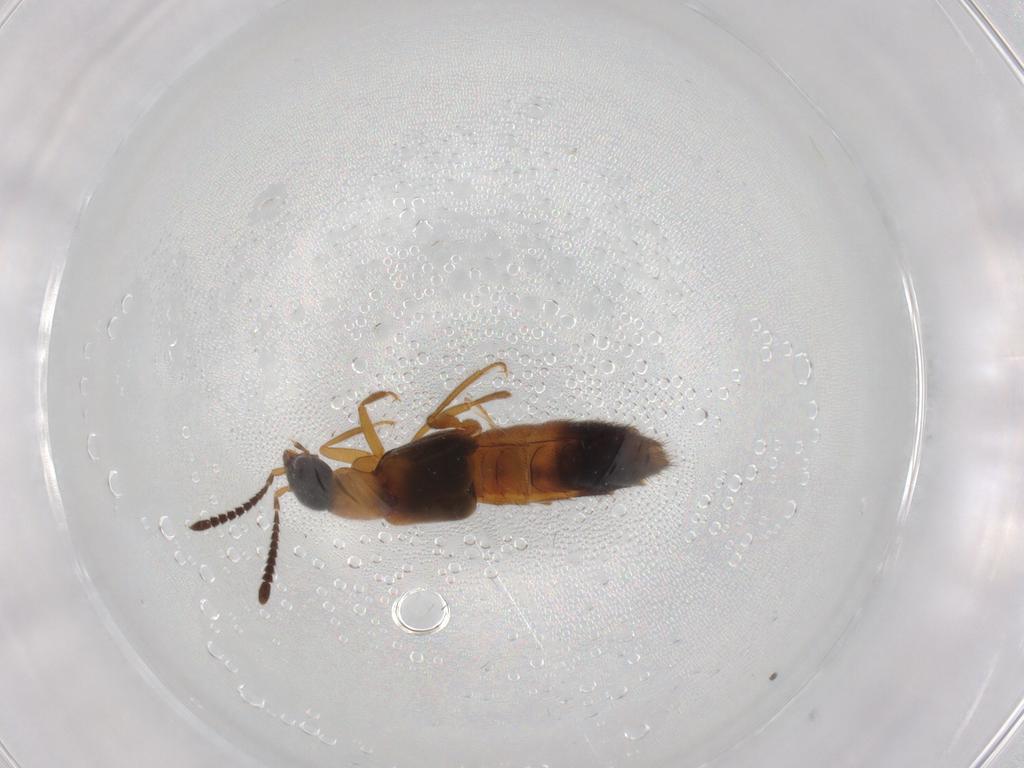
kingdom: Animalia
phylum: Arthropoda
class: Insecta
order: Coleoptera
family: Staphylinidae
